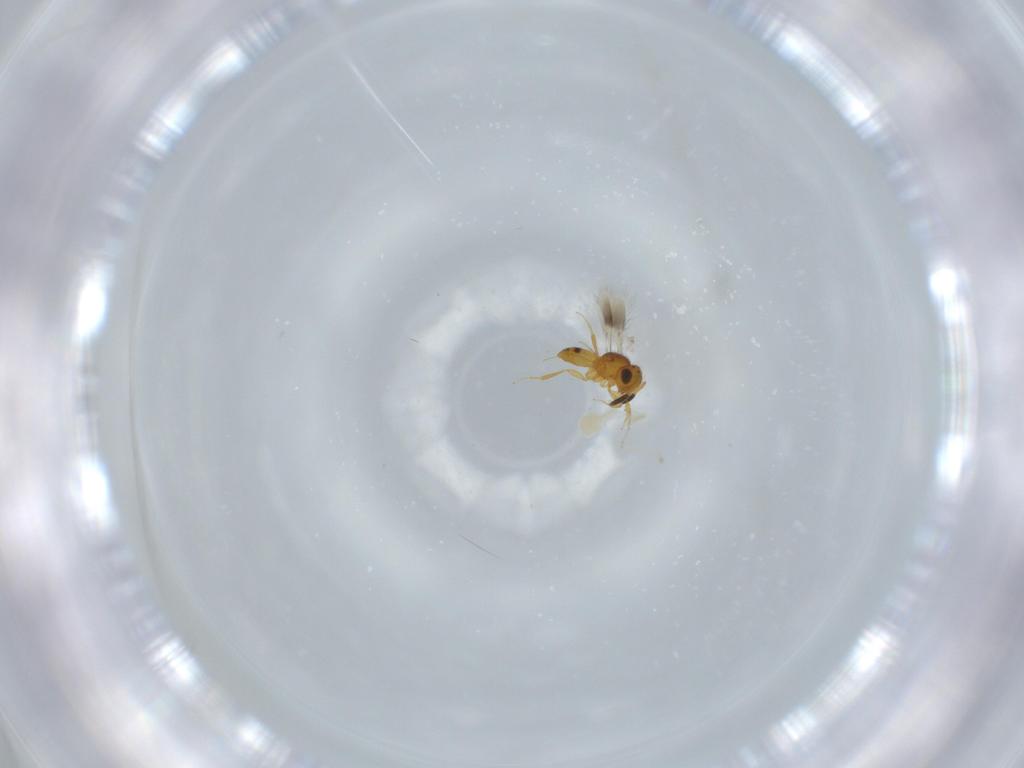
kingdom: Animalia
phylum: Arthropoda
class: Insecta
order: Hymenoptera
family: Scelionidae
